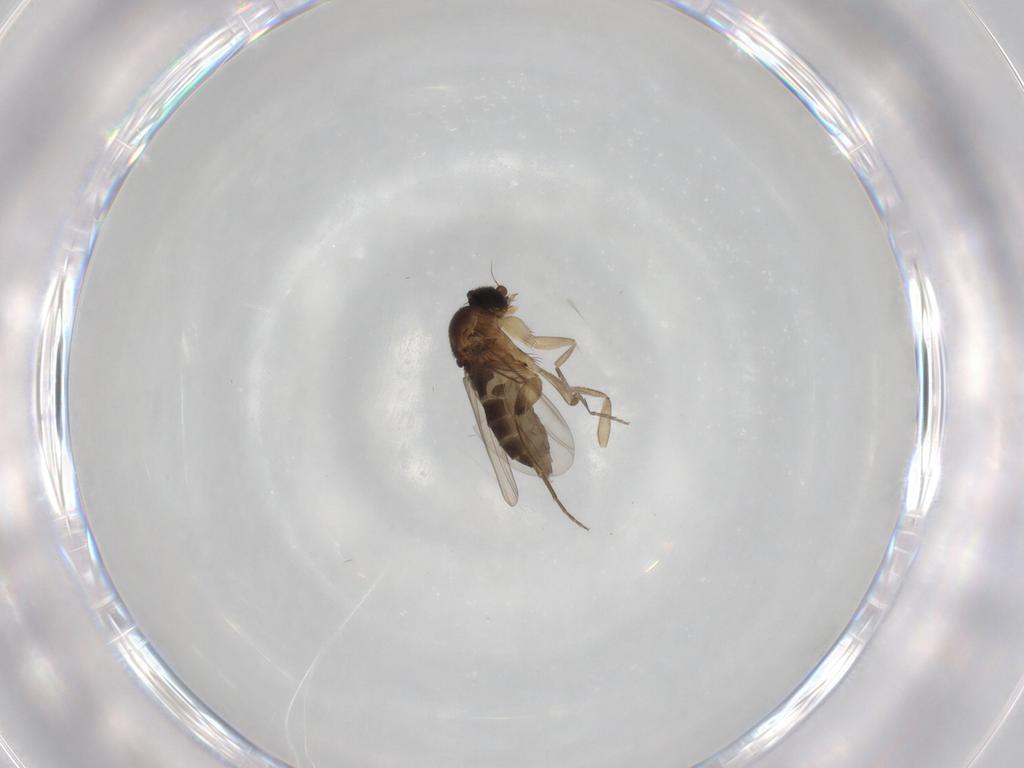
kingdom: Animalia
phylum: Arthropoda
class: Insecta
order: Diptera
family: Phoridae
